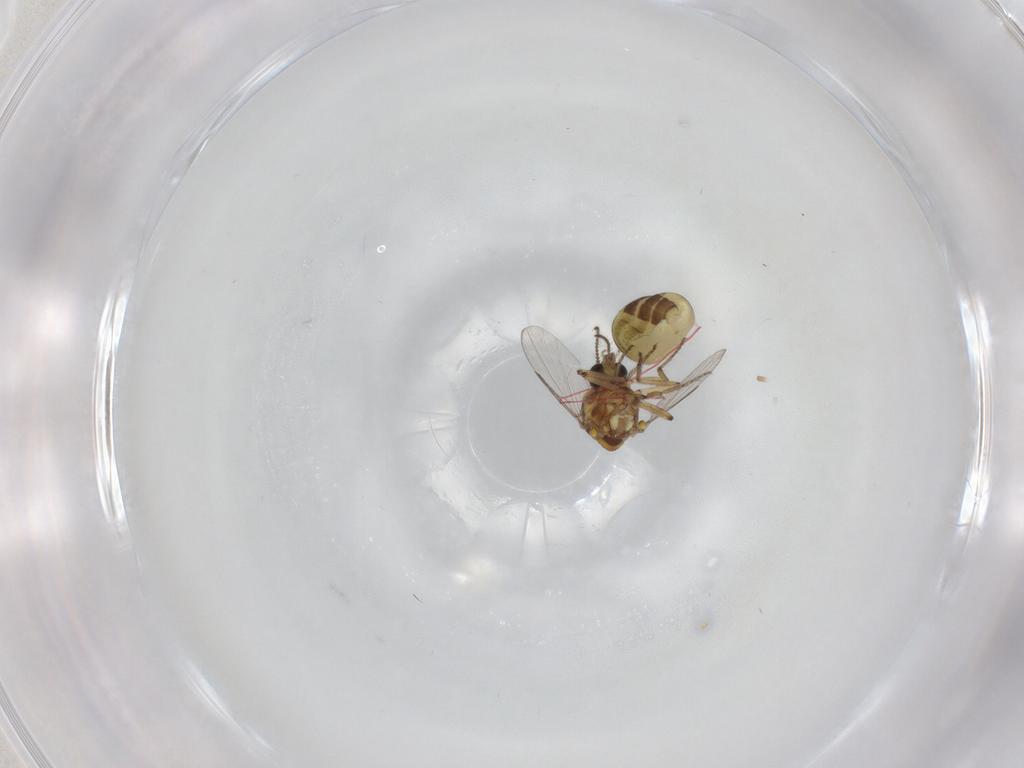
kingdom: Animalia
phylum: Arthropoda
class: Insecta
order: Diptera
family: Ceratopogonidae
